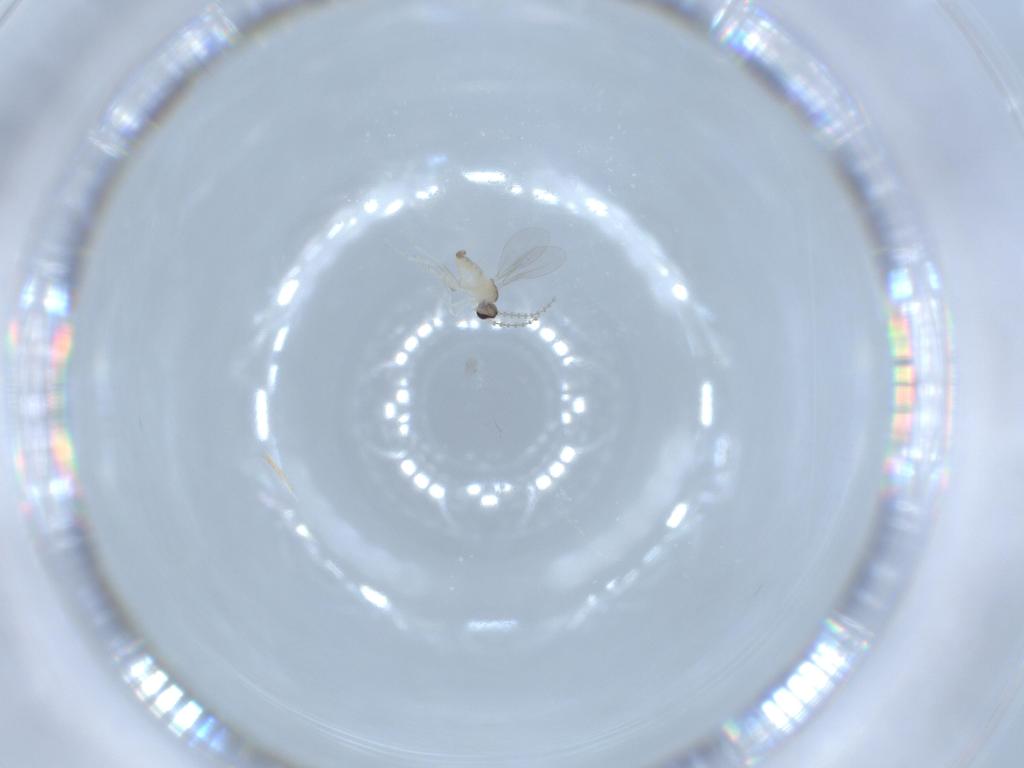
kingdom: Animalia
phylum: Arthropoda
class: Insecta
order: Diptera
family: Cecidomyiidae
